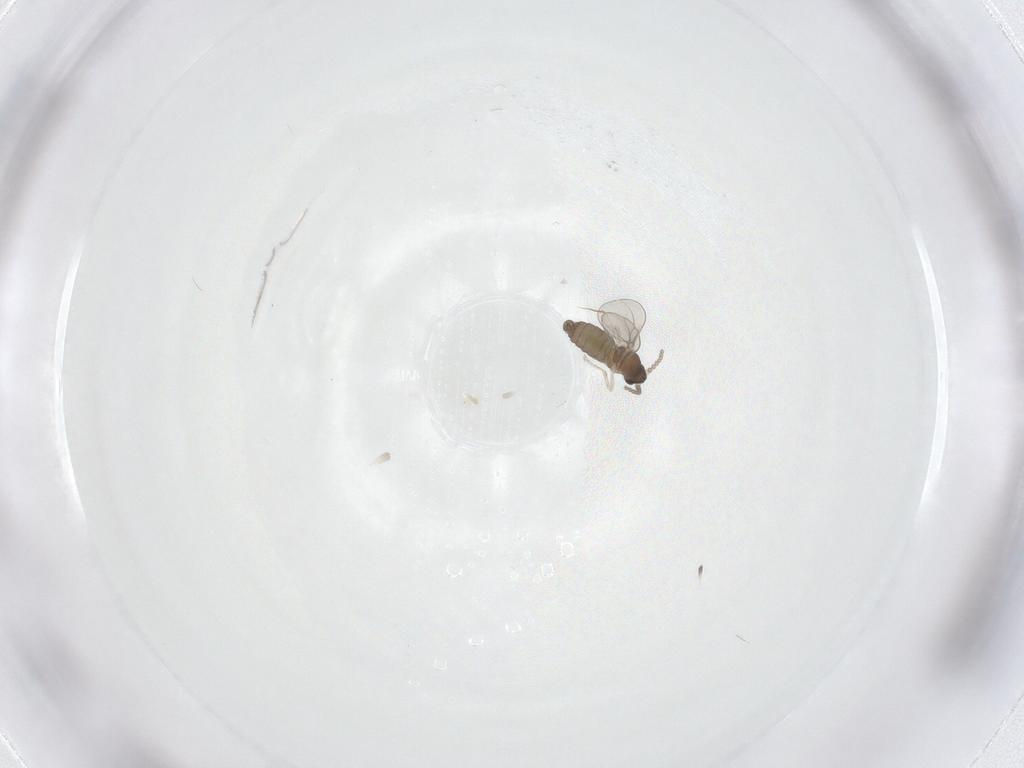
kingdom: Animalia
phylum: Arthropoda
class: Insecta
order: Diptera
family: Cecidomyiidae
